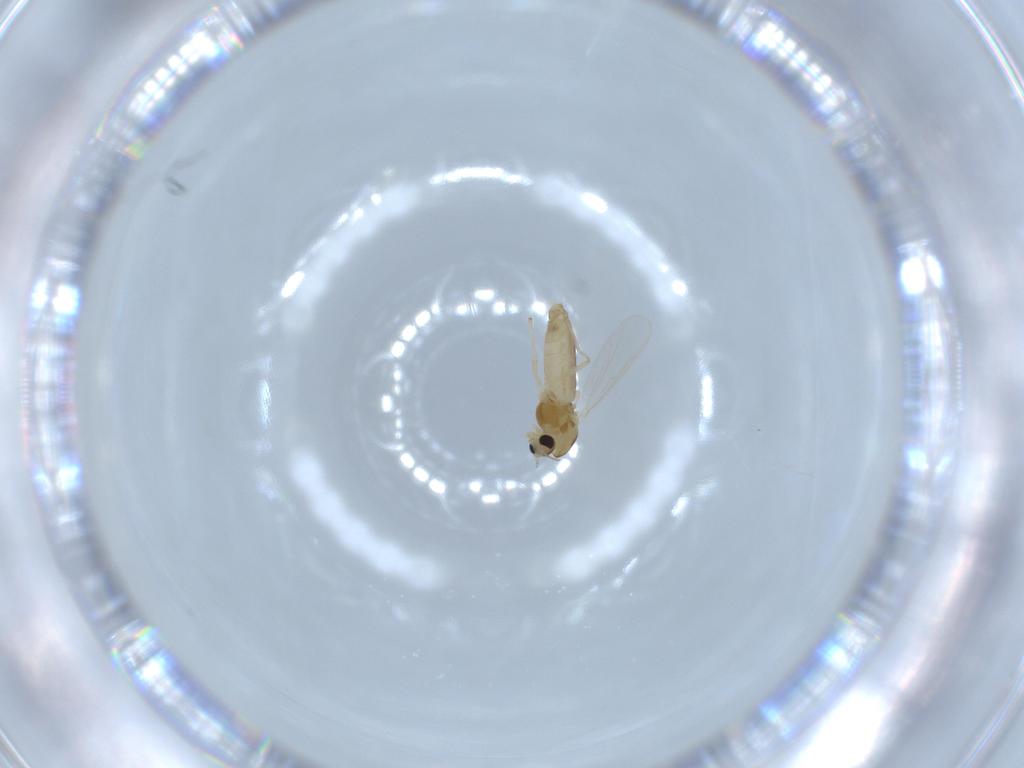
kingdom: Animalia
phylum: Arthropoda
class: Insecta
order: Diptera
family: Chironomidae
